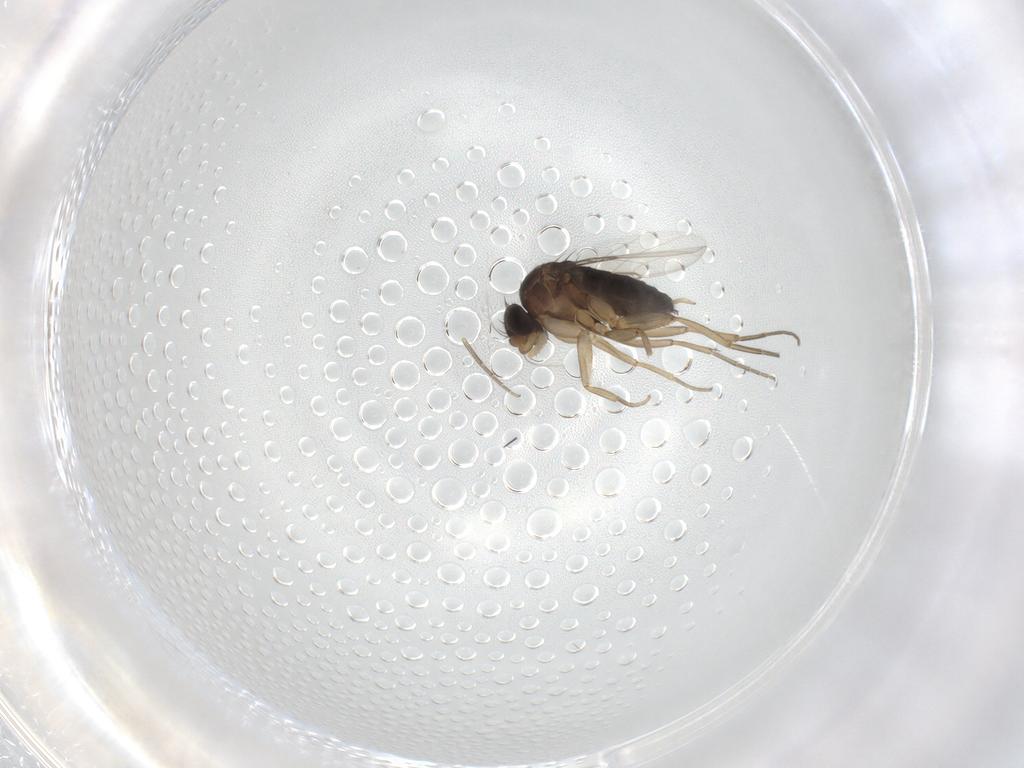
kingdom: Animalia
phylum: Arthropoda
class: Insecta
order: Diptera
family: Phoridae
